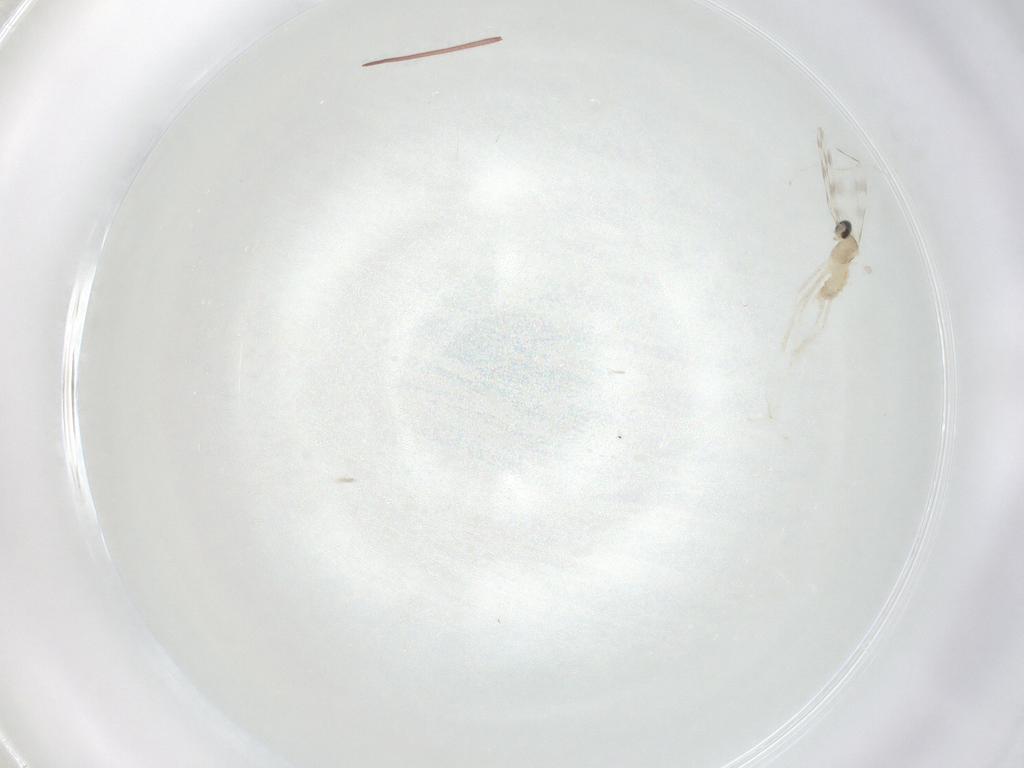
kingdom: Animalia
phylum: Arthropoda
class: Insecta
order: Diptera
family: Cecidomyiidae
